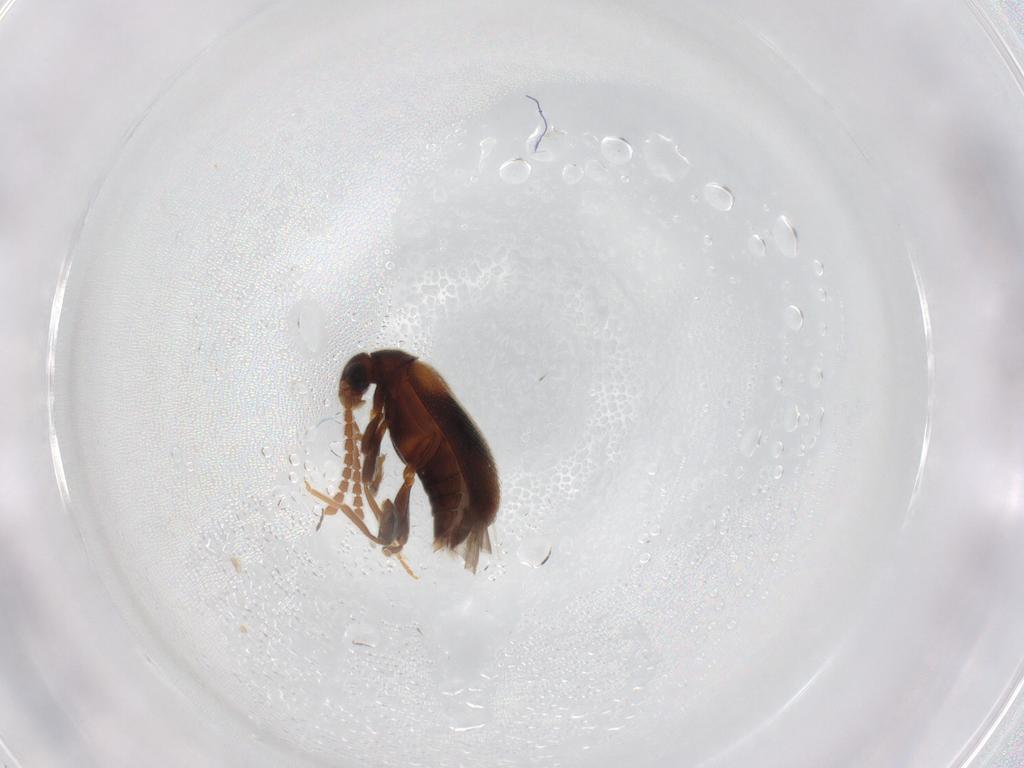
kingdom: Animalia
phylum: Arthropoda
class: Insecta
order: Coleoptera
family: Aderidae
